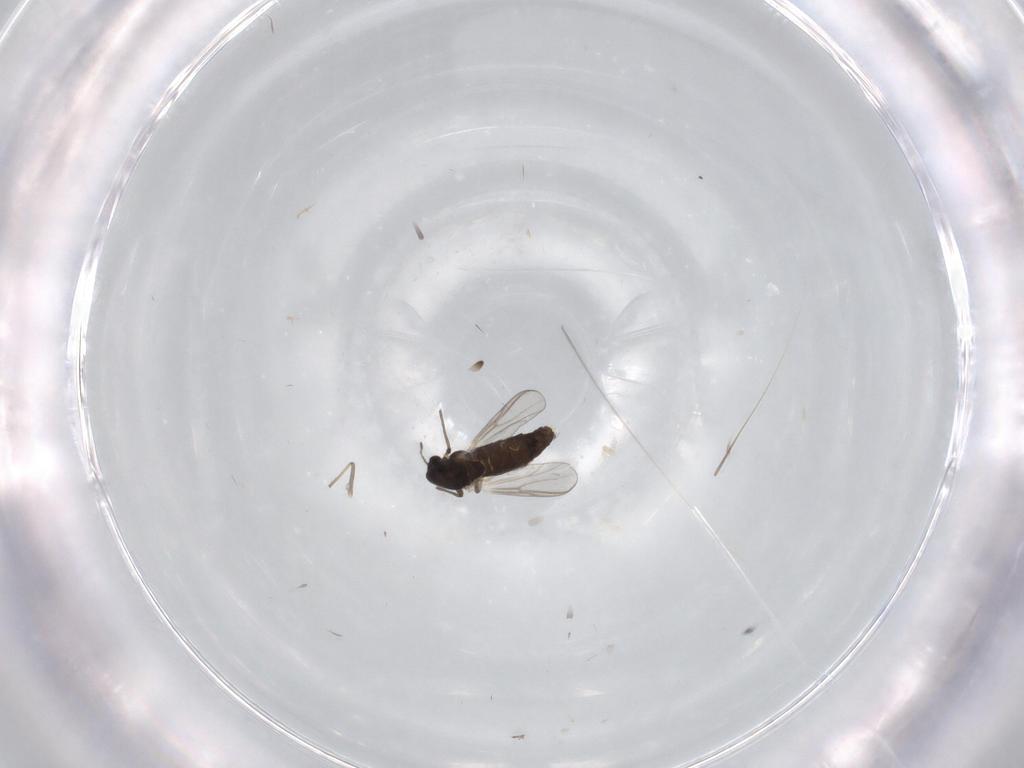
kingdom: Animalia
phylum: Arthropoda
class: Insecta
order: Diptera
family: Chironomidae
